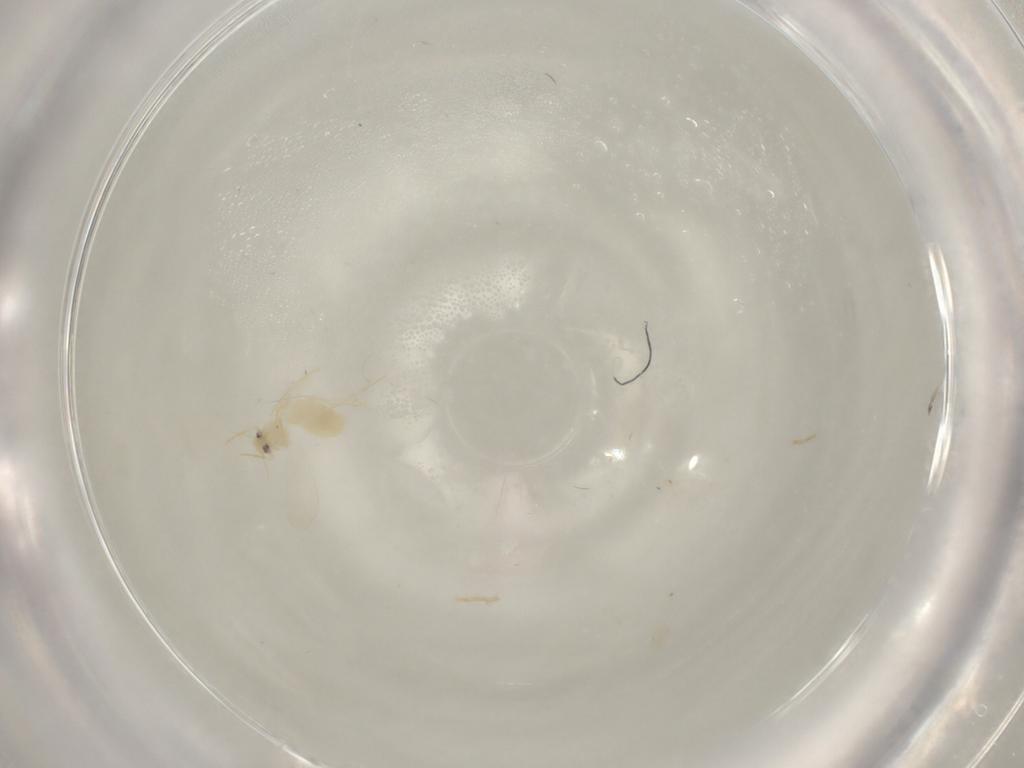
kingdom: Animalia
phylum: Arthropoda
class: Insecta
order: Hemiptera
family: Aleyrodidae
